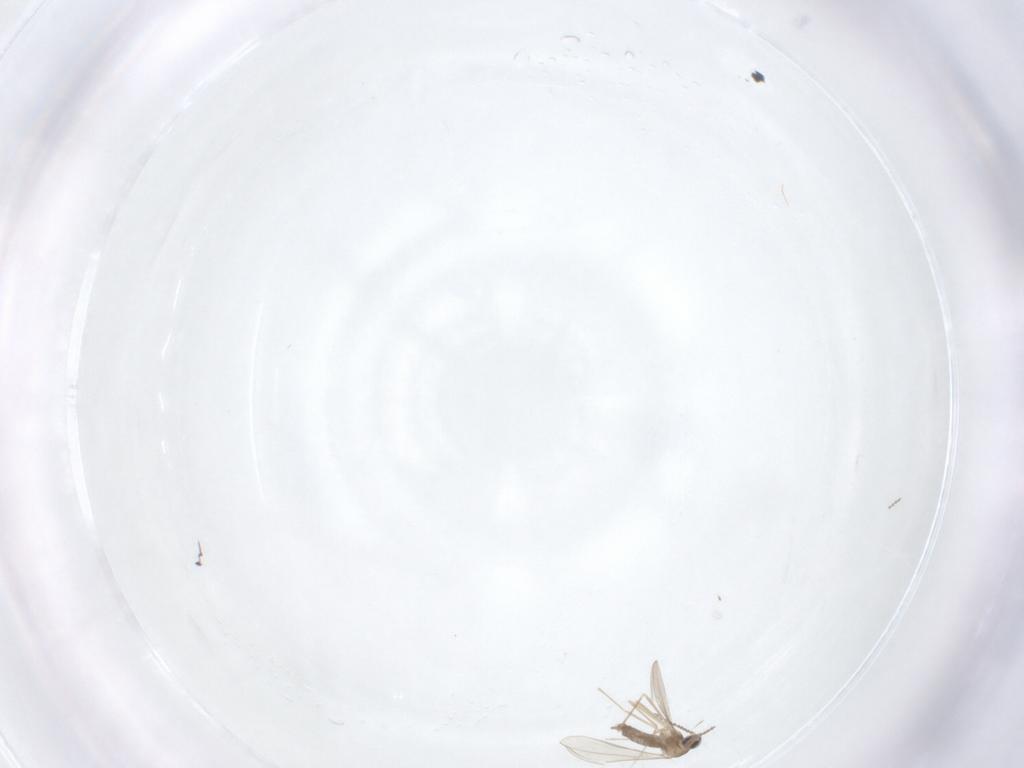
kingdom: Animalia
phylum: Arthropoda
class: Insecta
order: Diptera
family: Cecidomyiidae
